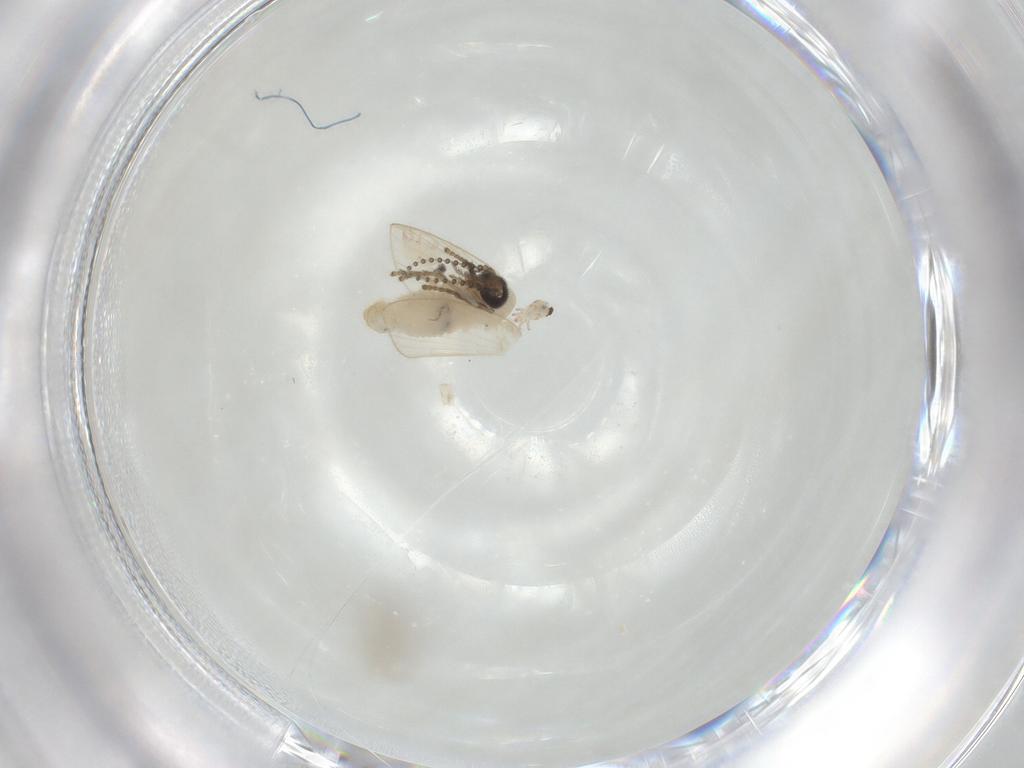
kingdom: Animalia
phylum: Arthropoda
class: Insecta
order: Diptera
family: Psychodidae
